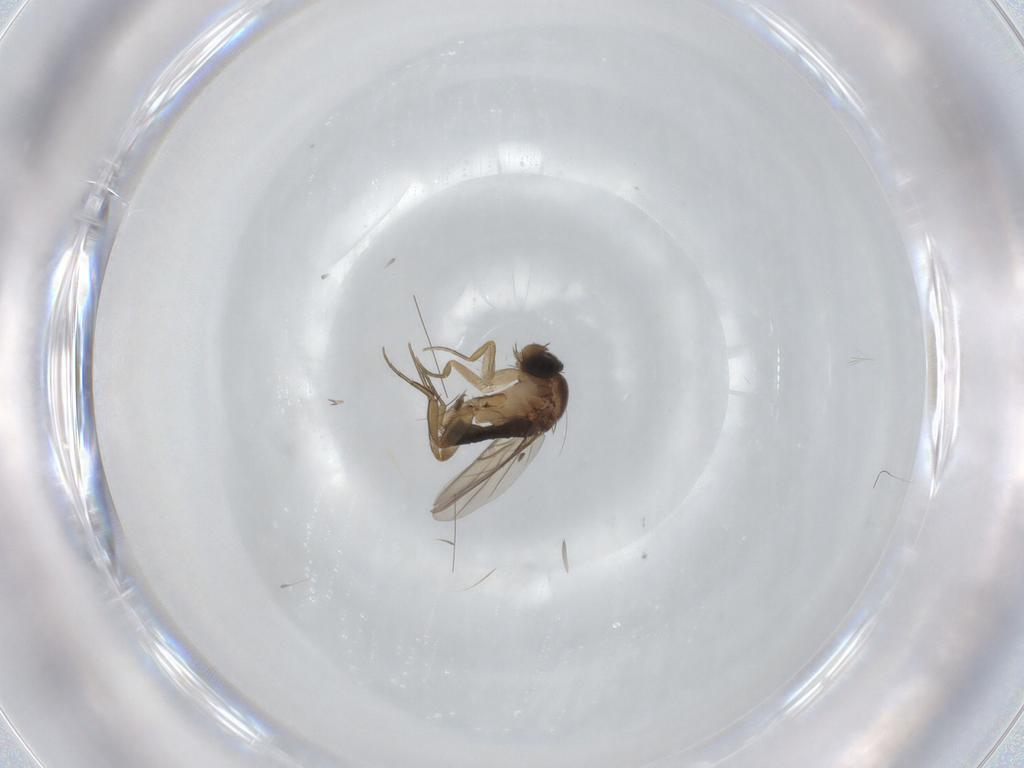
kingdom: Animalia
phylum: Arthropoda
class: Insecta
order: Diptera
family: Phoridae
